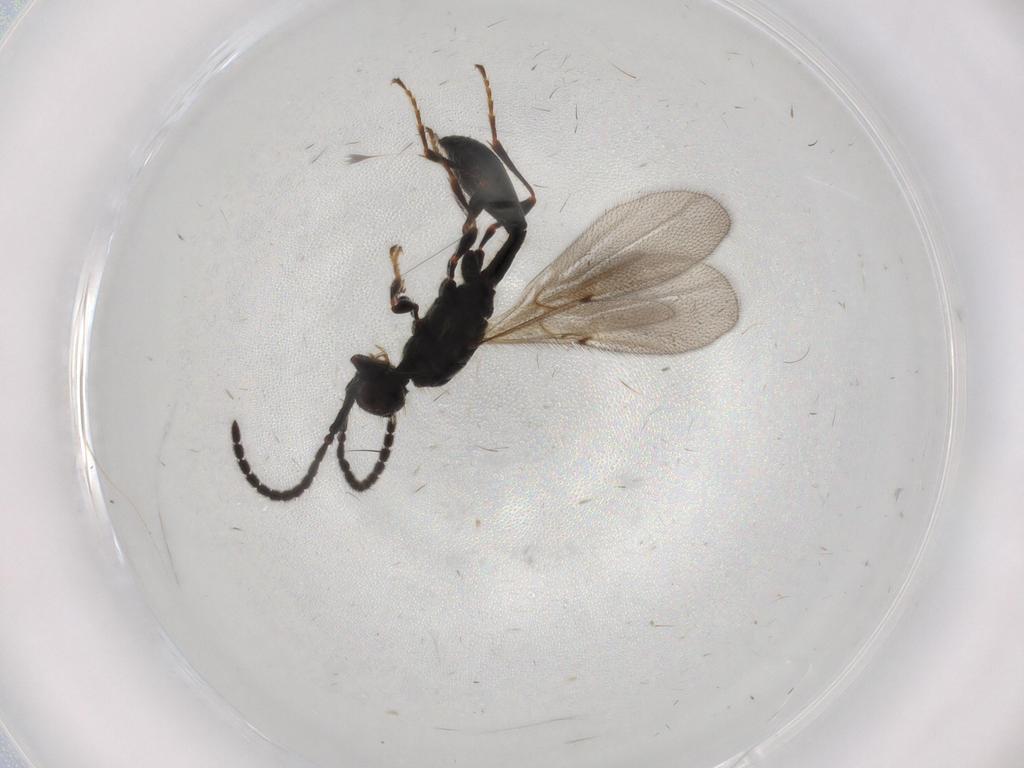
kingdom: Animalia
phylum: Arthropoda
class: Insecta
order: Hymenoptera
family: Diapriidae
